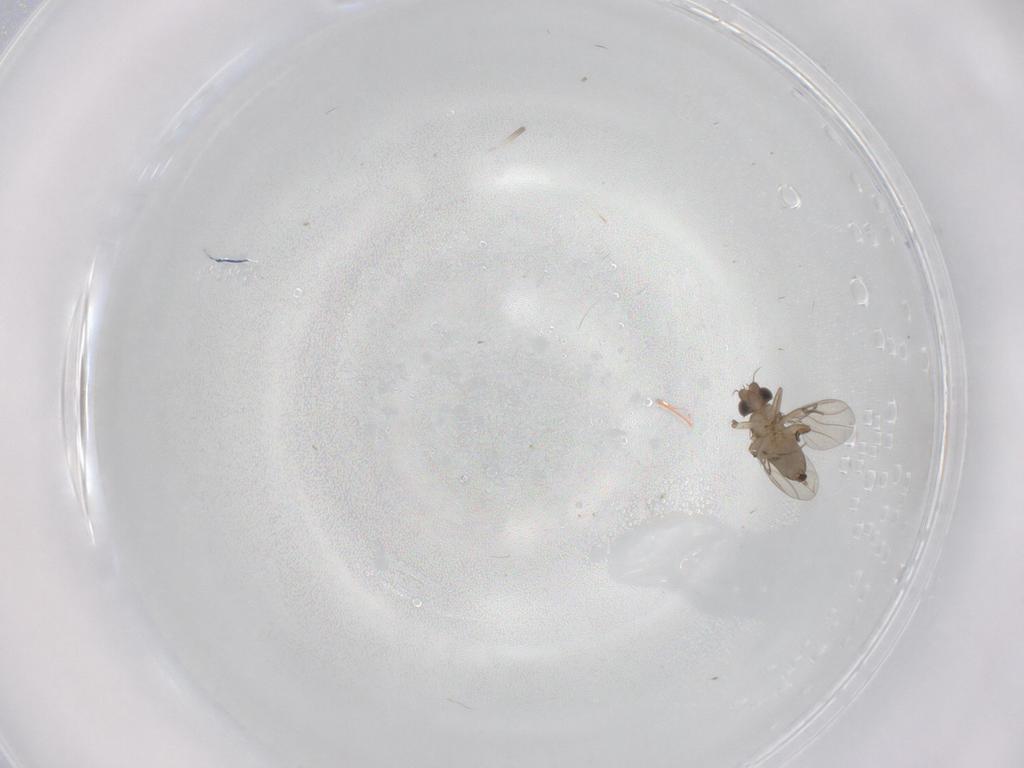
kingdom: Animalia
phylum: Arthropoda
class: Insecta
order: Diptera
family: Phoridae
